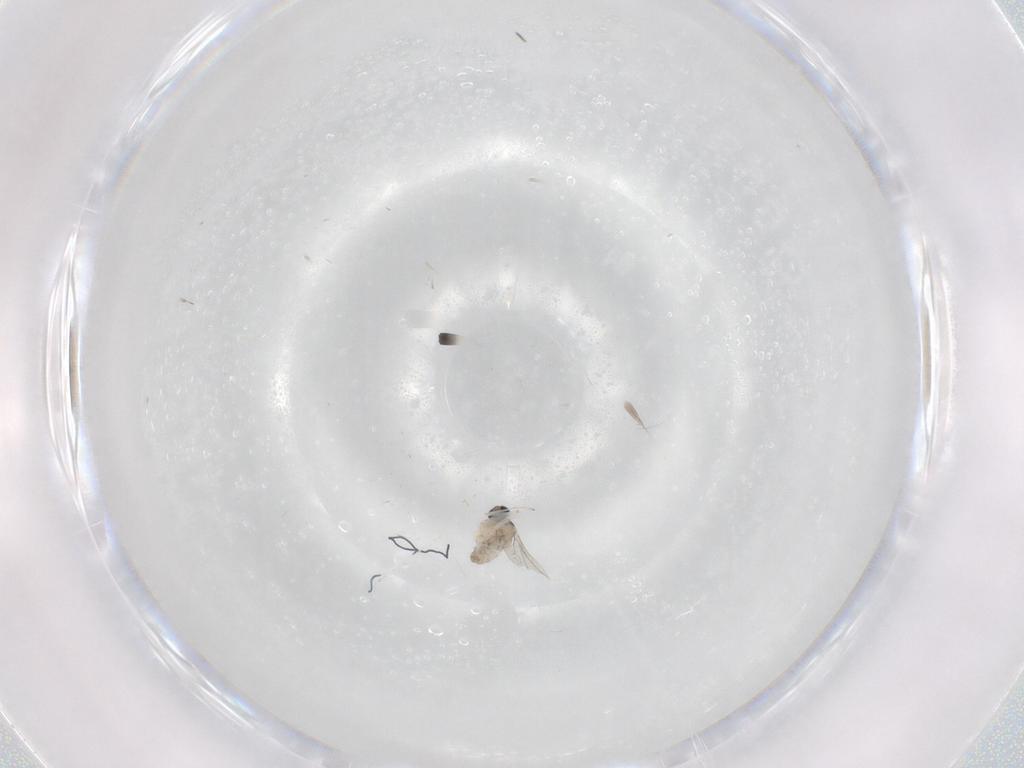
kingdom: Animalia
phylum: Arthropoda
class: Insecta
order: Diptera
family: Cecidomyiidae
